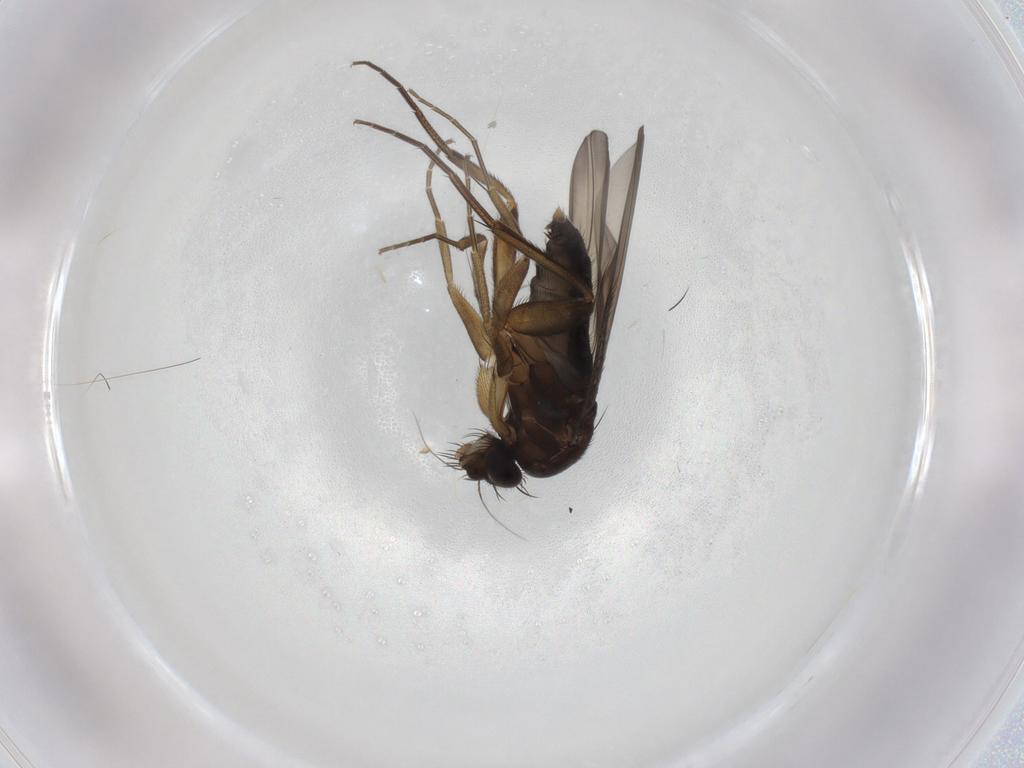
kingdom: Animalia
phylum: Arthropoda
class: Insecta
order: Diptera
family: Phoridae
